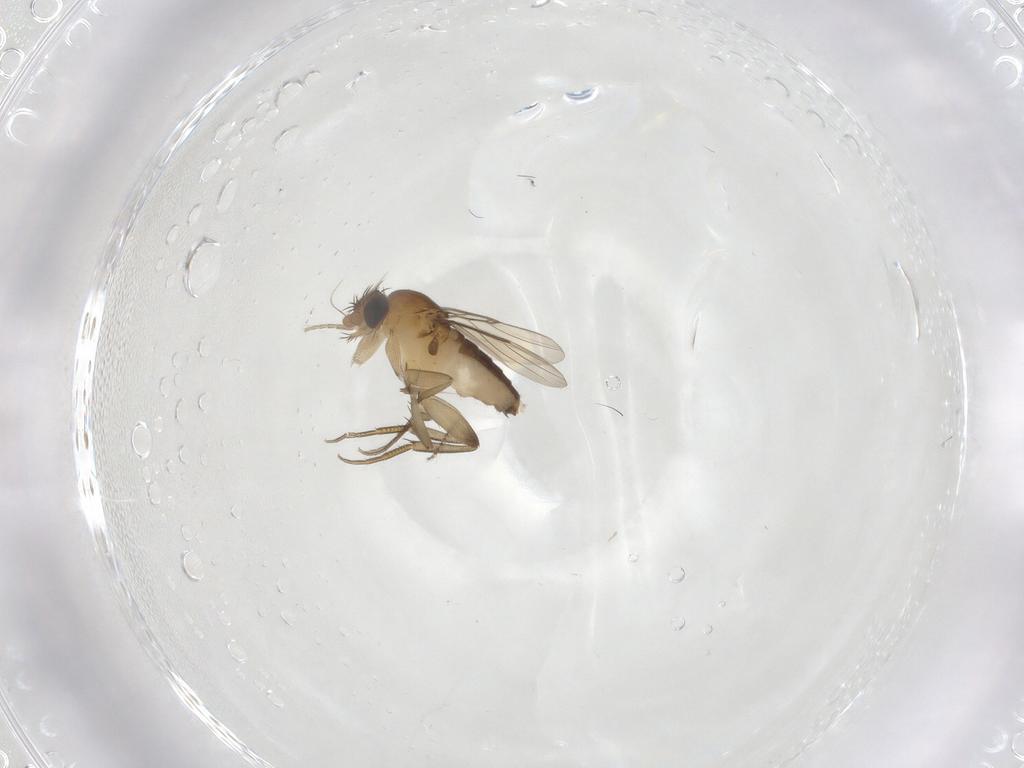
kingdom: Animalia
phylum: Arthropoda
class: Insecta
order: Diptera
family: Phoridae
